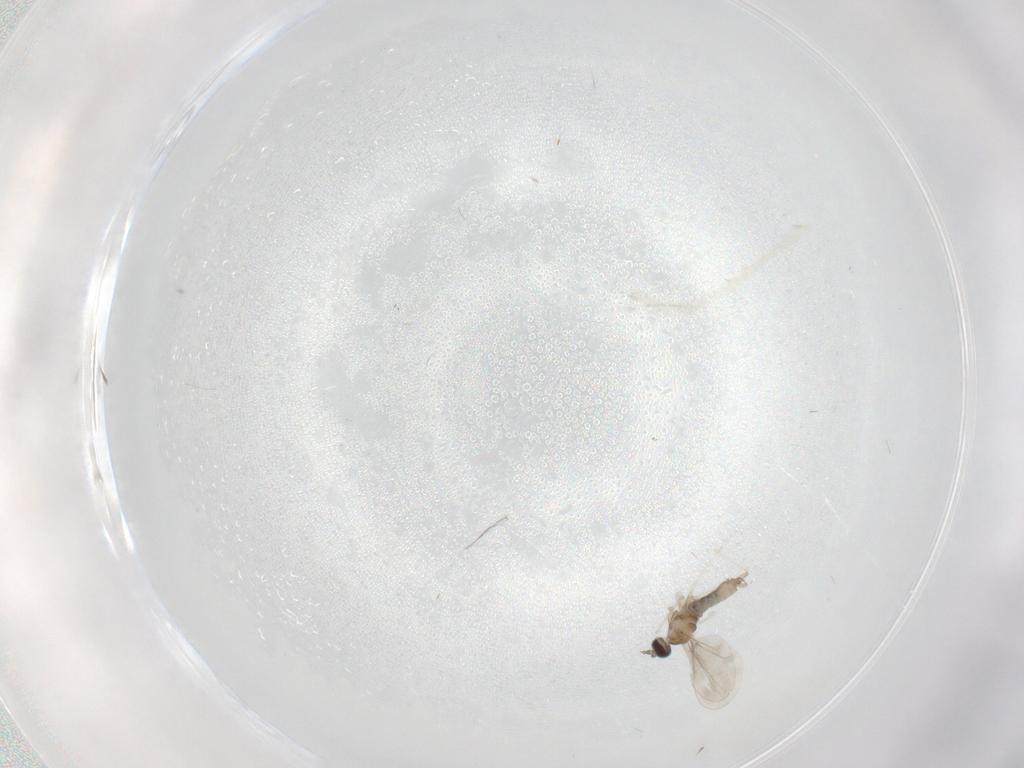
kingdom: Animalia
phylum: Arthropoda
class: Insecta
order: Diptera
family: Cecidomyiidae
